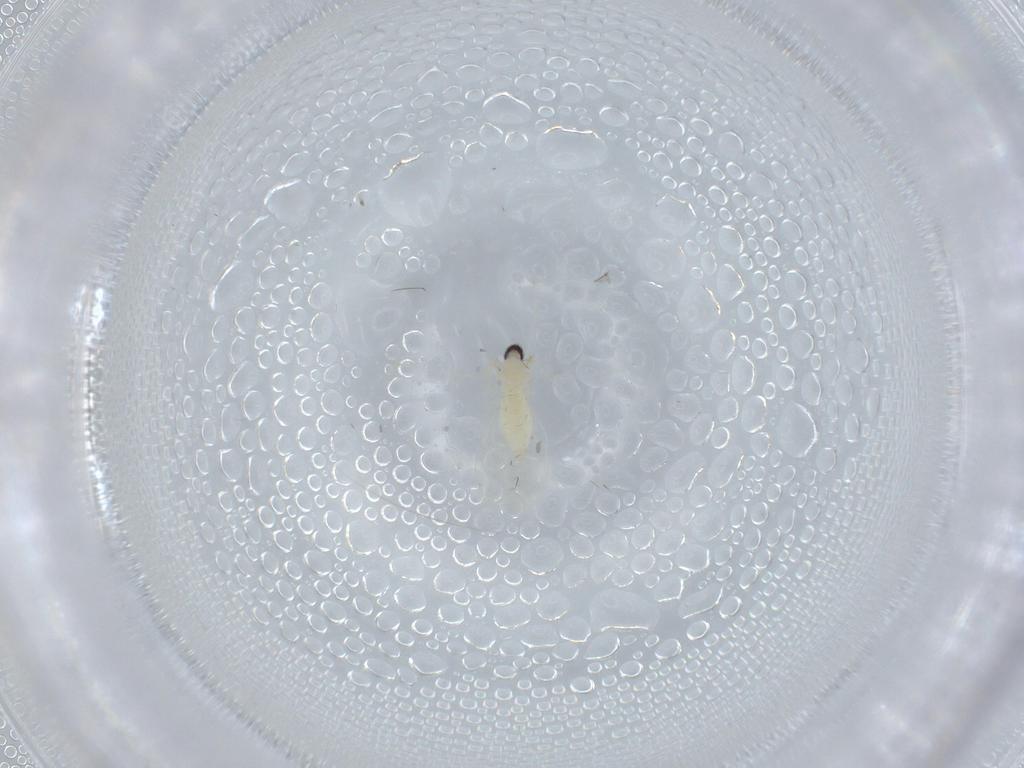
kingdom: Animalia
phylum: Arthropoda
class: Insecta
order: Diptera
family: Cecidomyiidae
